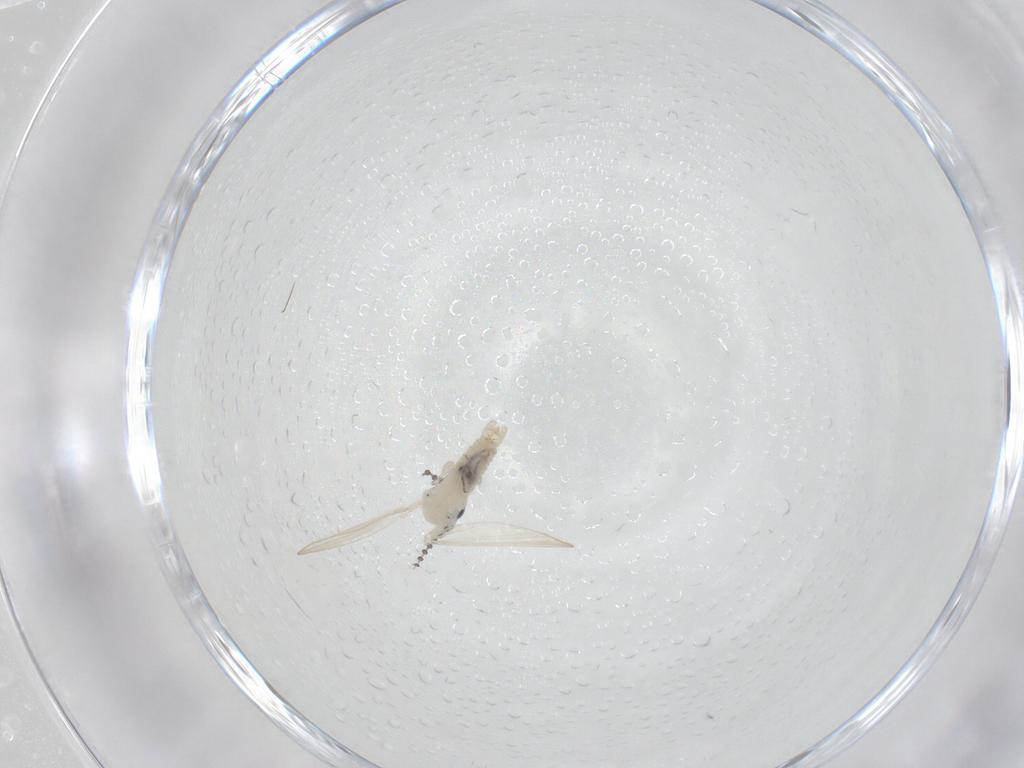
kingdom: Animalia
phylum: Arthropoda
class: Insecta
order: Diptera
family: Psychodidae
